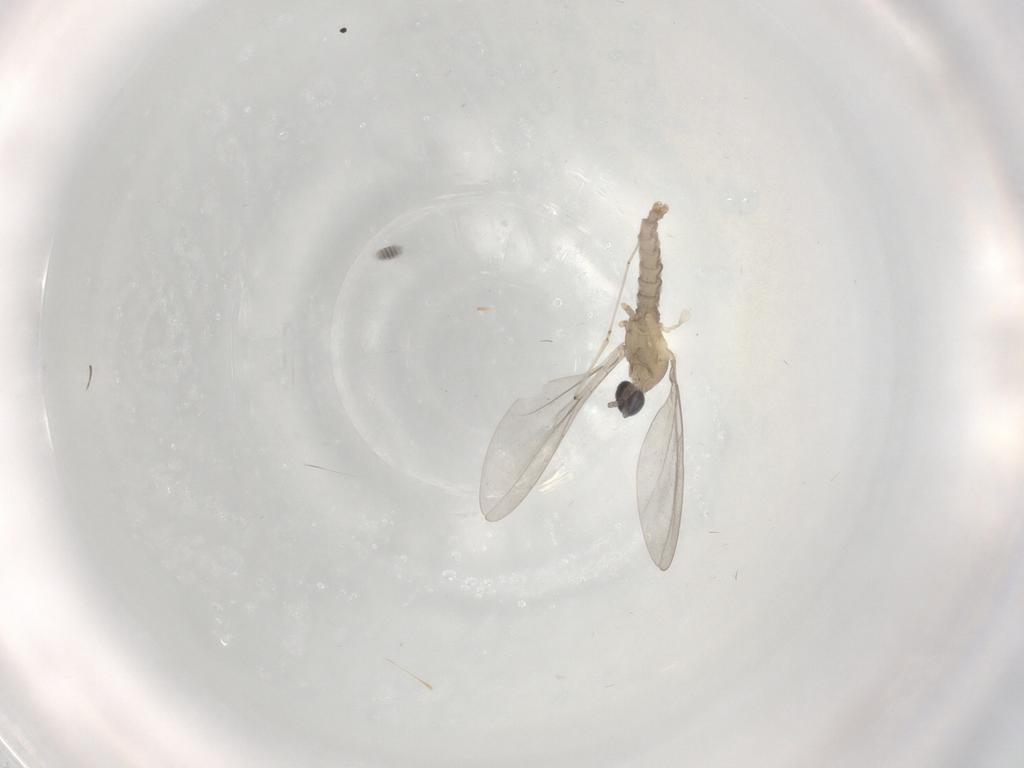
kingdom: Animalia
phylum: Arthropoda
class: Insecta
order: Diptera
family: Cecidomyiidae
